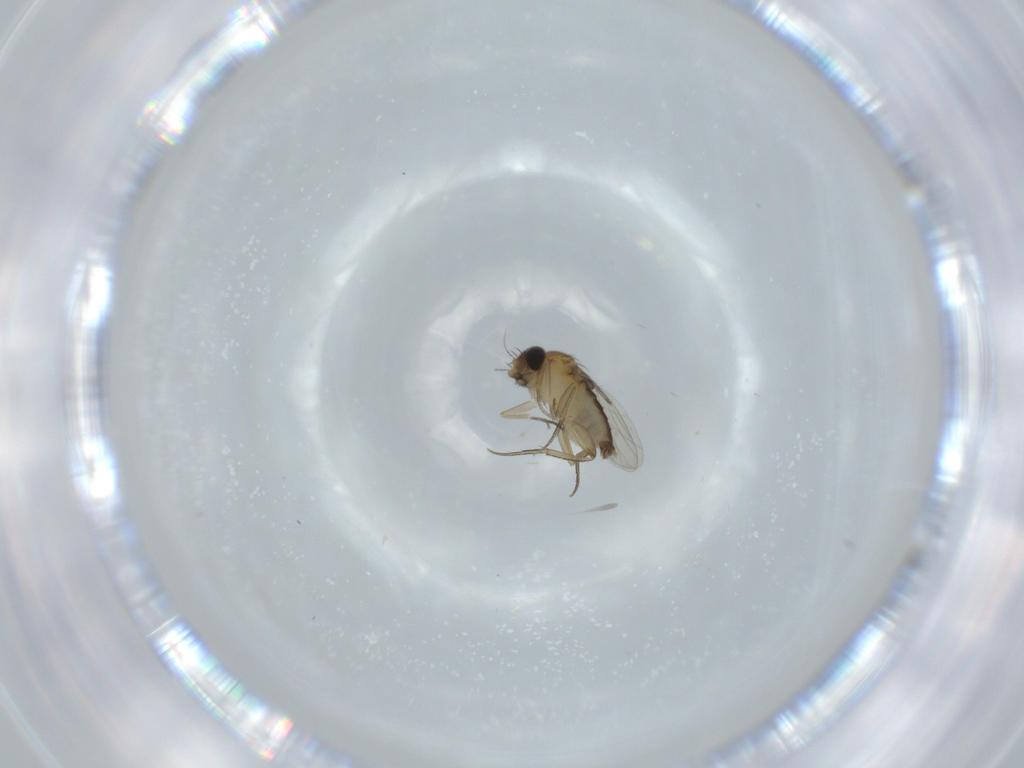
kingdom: Animalia
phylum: Arthropoda
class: Insecta
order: Diptera
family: Phoridae
